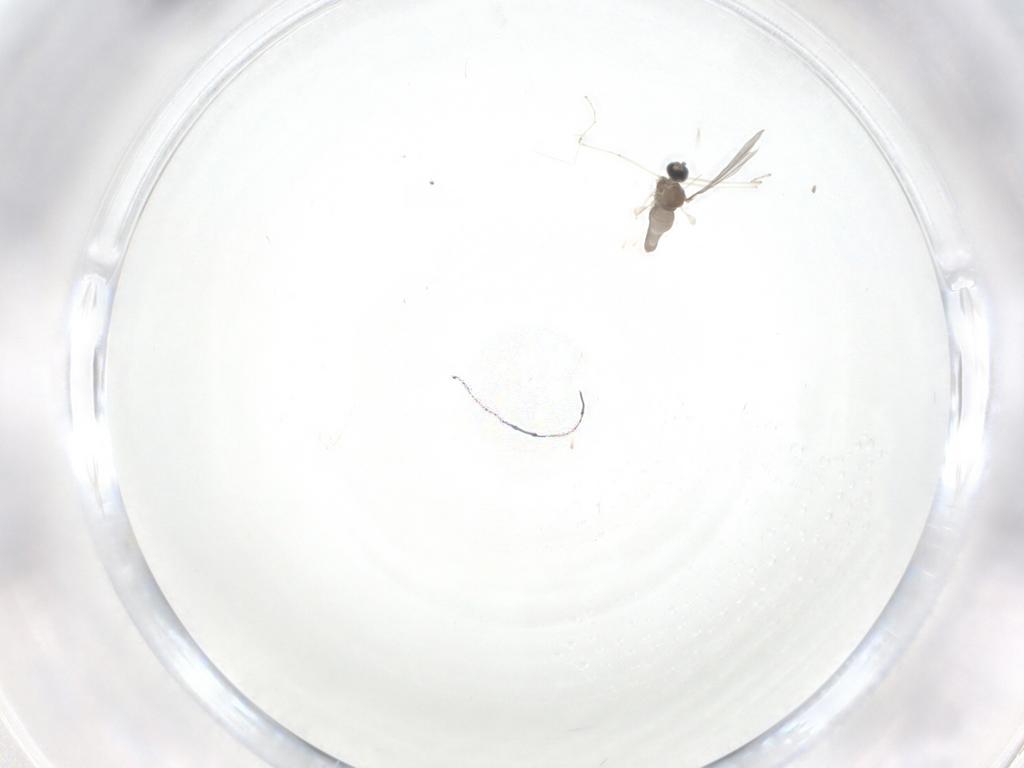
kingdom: Animalia
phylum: Arthropoda
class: Insecta
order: Diptera
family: Cecidomyiidae
